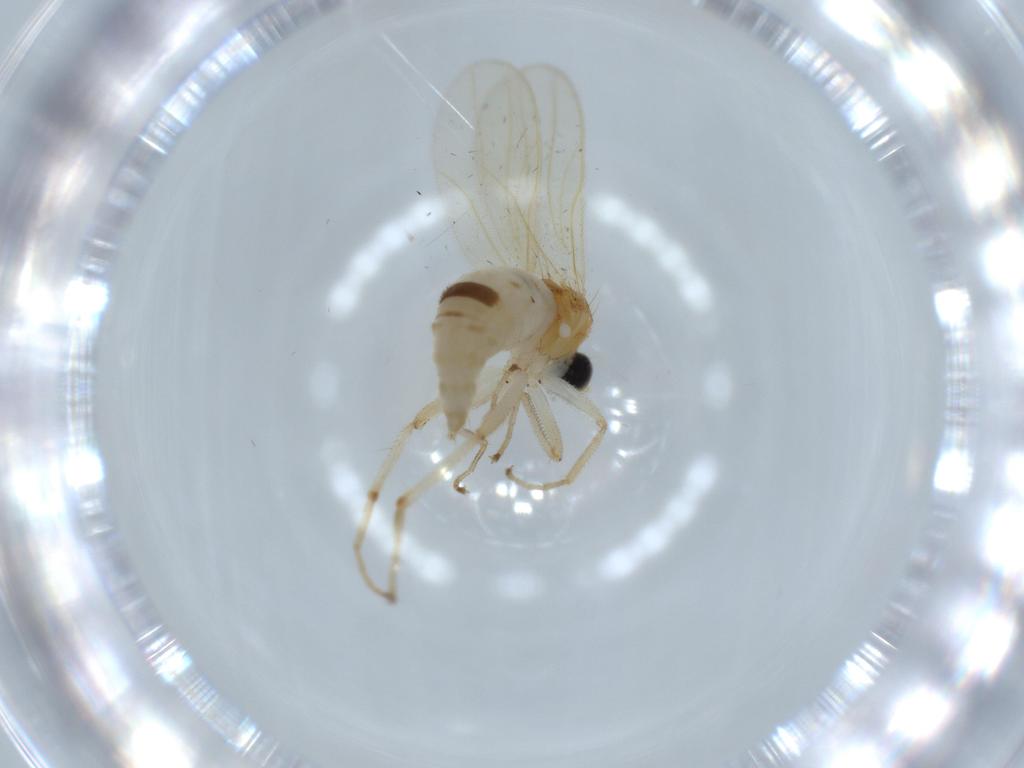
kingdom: Animalia
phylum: Arthropoda
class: Insecta
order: Diptera
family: Hybotidae
